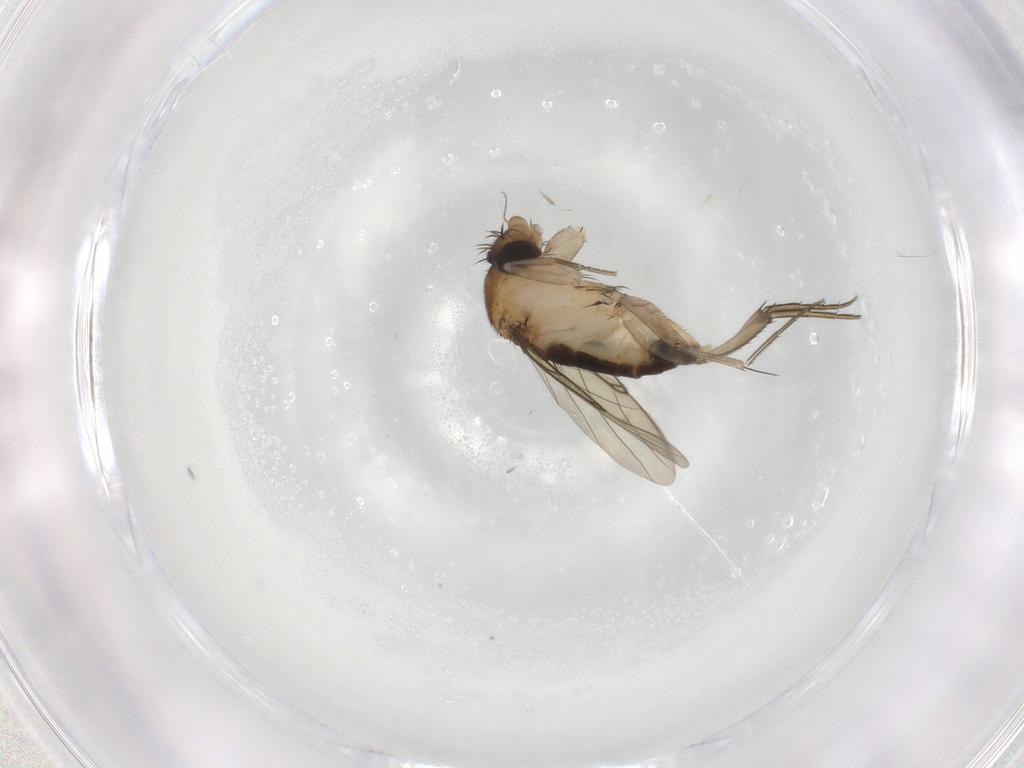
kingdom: Animalia
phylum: Arthropoda
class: Insecta
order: Diptera
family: Phoridae
